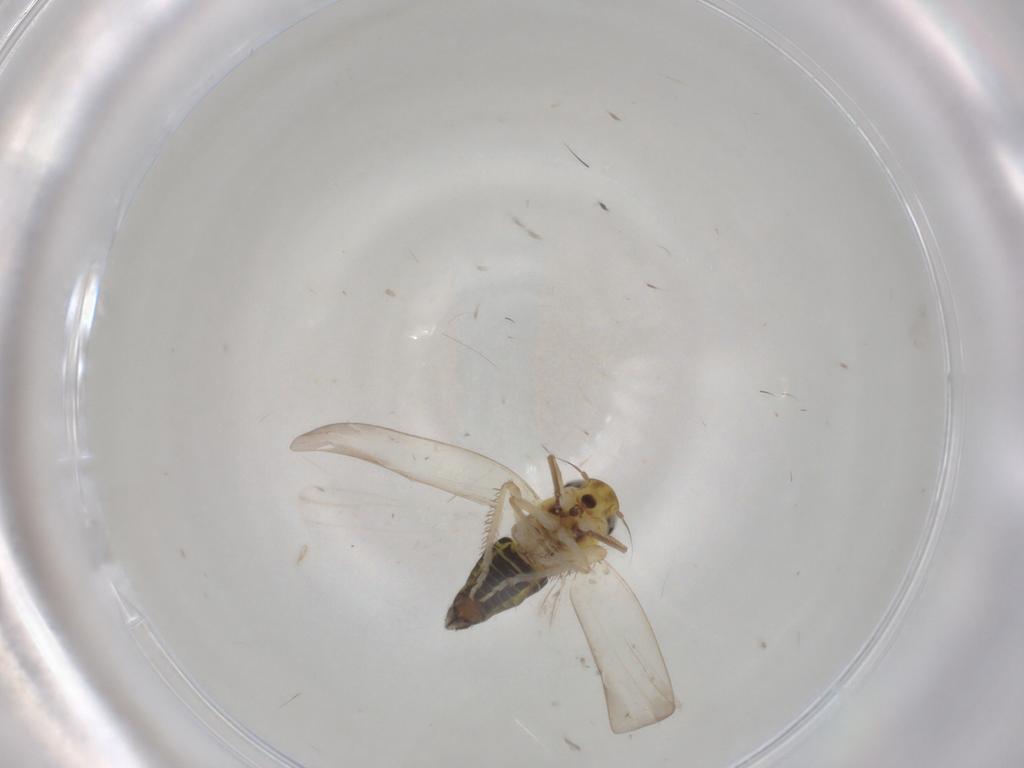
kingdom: Animalia
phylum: Arthropoda
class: Insecta
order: Hemiptera
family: Cicadellidae
